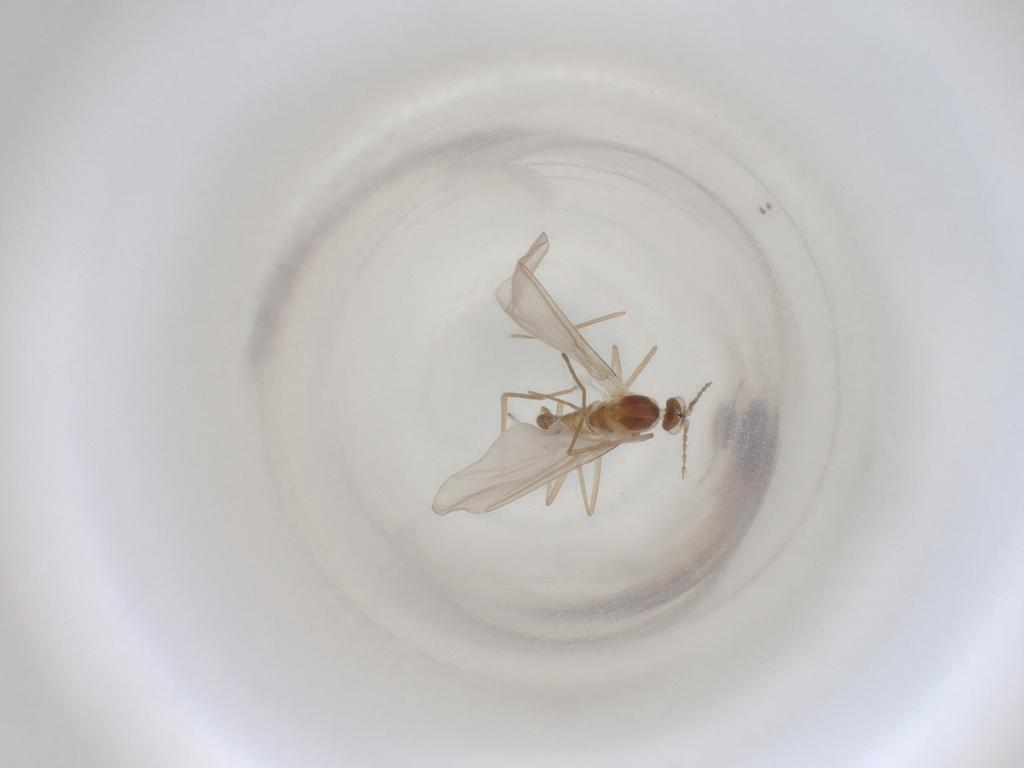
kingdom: Animalia
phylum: Arthropoda
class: Insecta
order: Diptera
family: Cecidomyiidae
